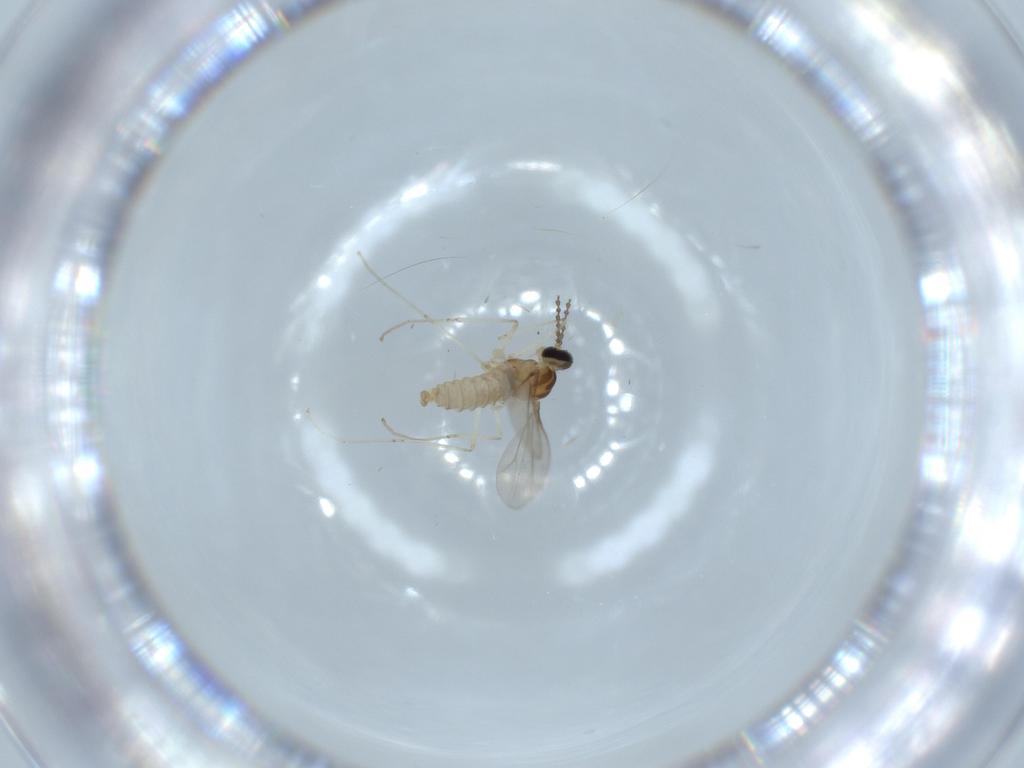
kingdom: Animalia
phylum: Arthropoda
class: Insecta
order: Diptera
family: Cecidomyiidae
